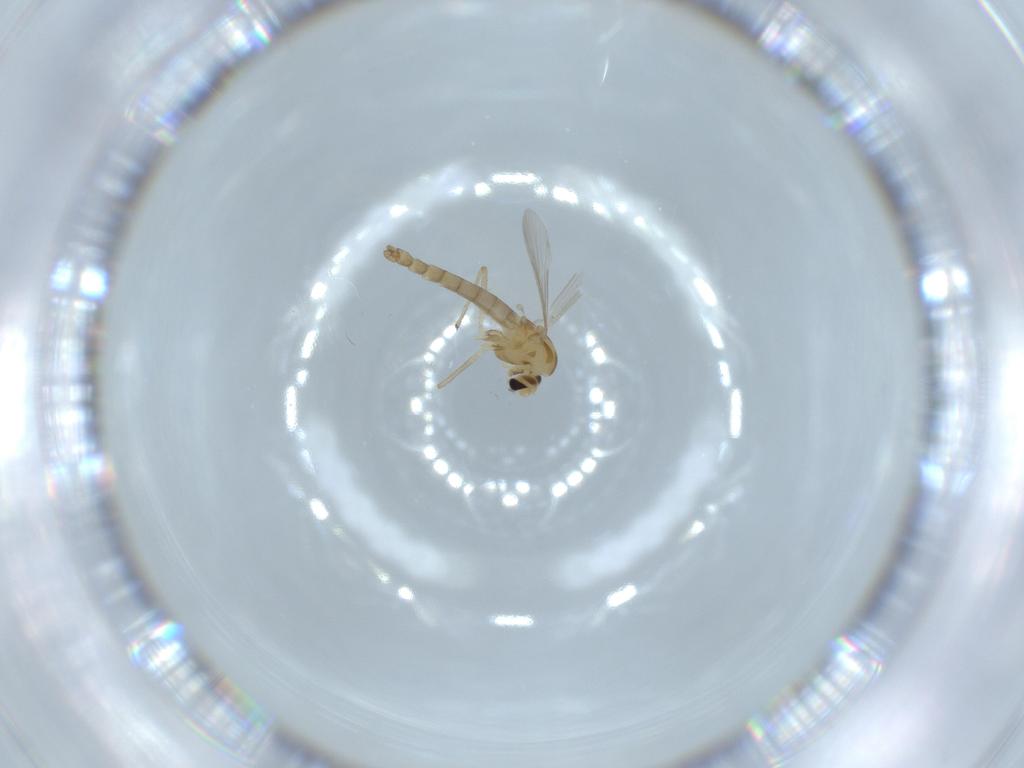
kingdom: Animalia
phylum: Arthropoda
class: Insecta
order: Diptera
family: Chironomidae
